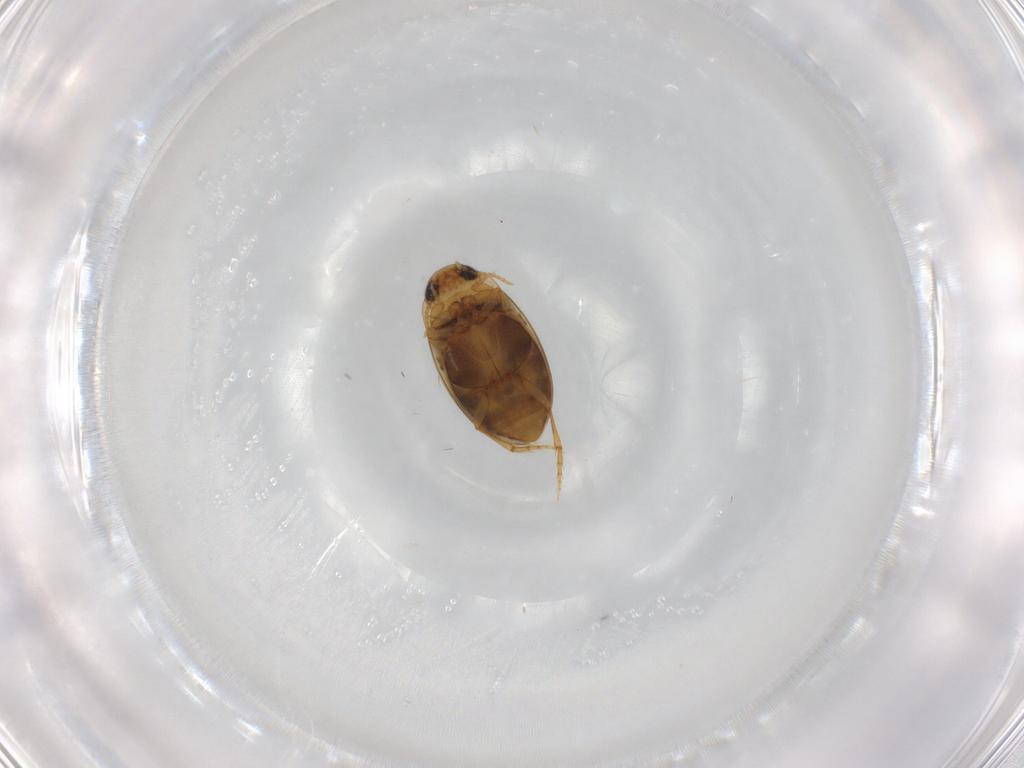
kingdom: Animalia
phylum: Arthropoda
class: Insecta
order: Coleoptera
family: Dytiscidae
